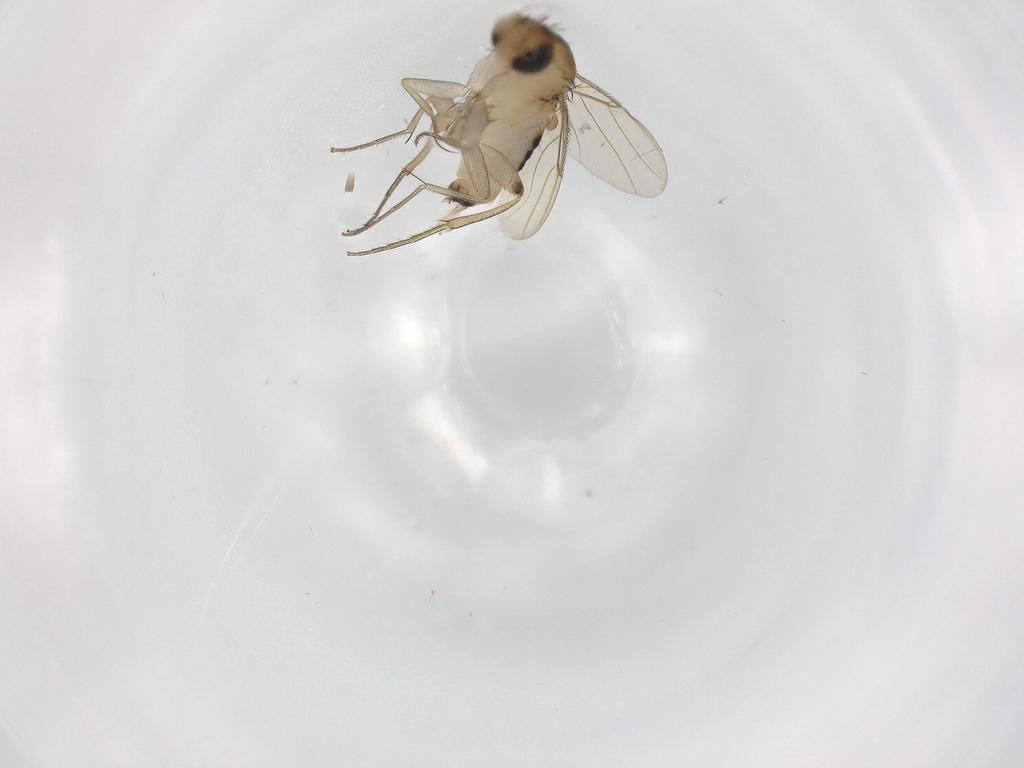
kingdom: Animalia
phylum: Arthropoda
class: Insecta
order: Diptera
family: Phoridae
